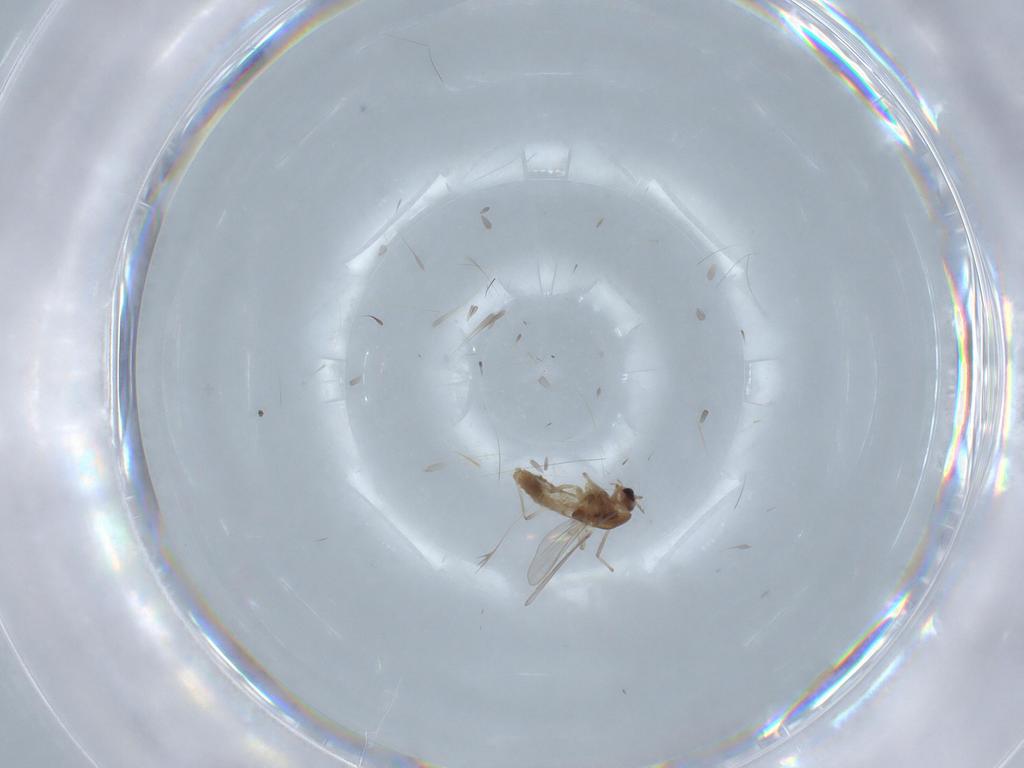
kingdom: Animalia
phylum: Arthropoda
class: Insecta
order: Diptera
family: Chironomidae
